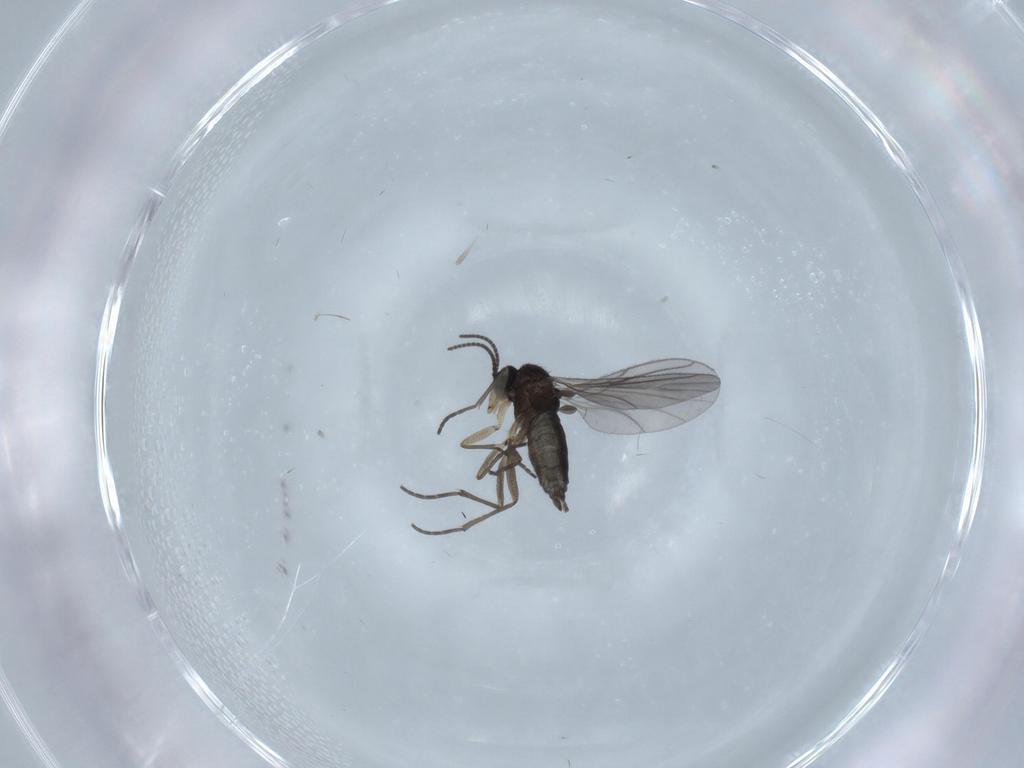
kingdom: Animalia
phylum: Arthropoda
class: Insecta
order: Diptera
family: Sciaridae
